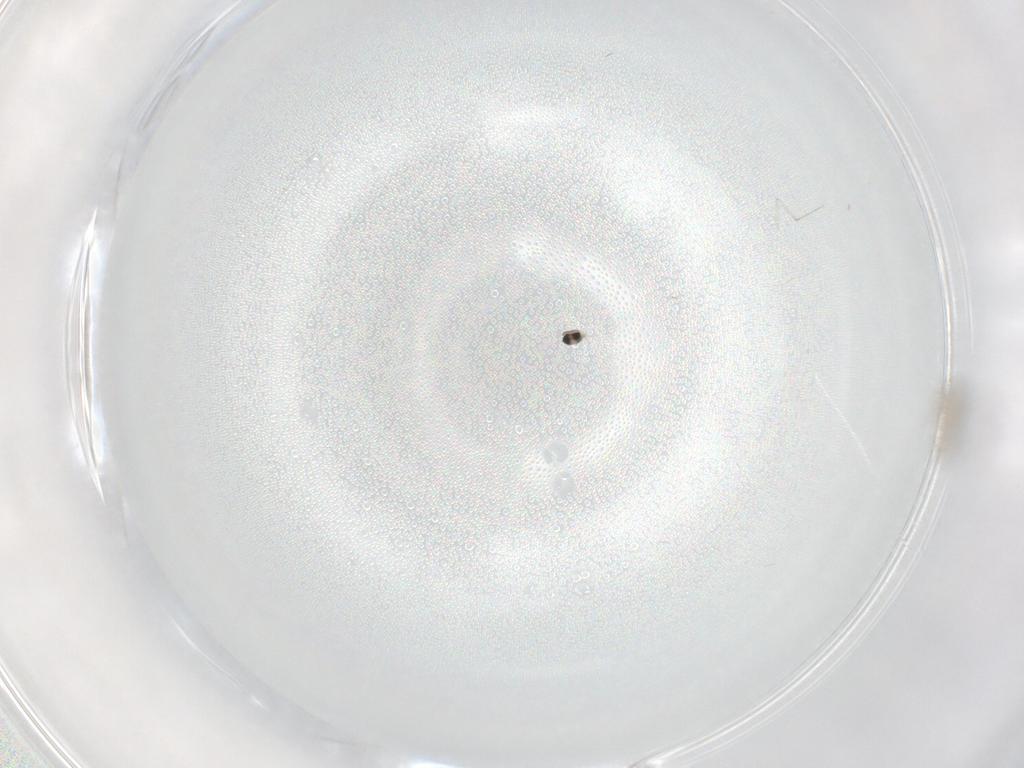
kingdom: Animalia
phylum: Arthropoda
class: Insecta
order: Diptera
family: Cecidomyiidae
